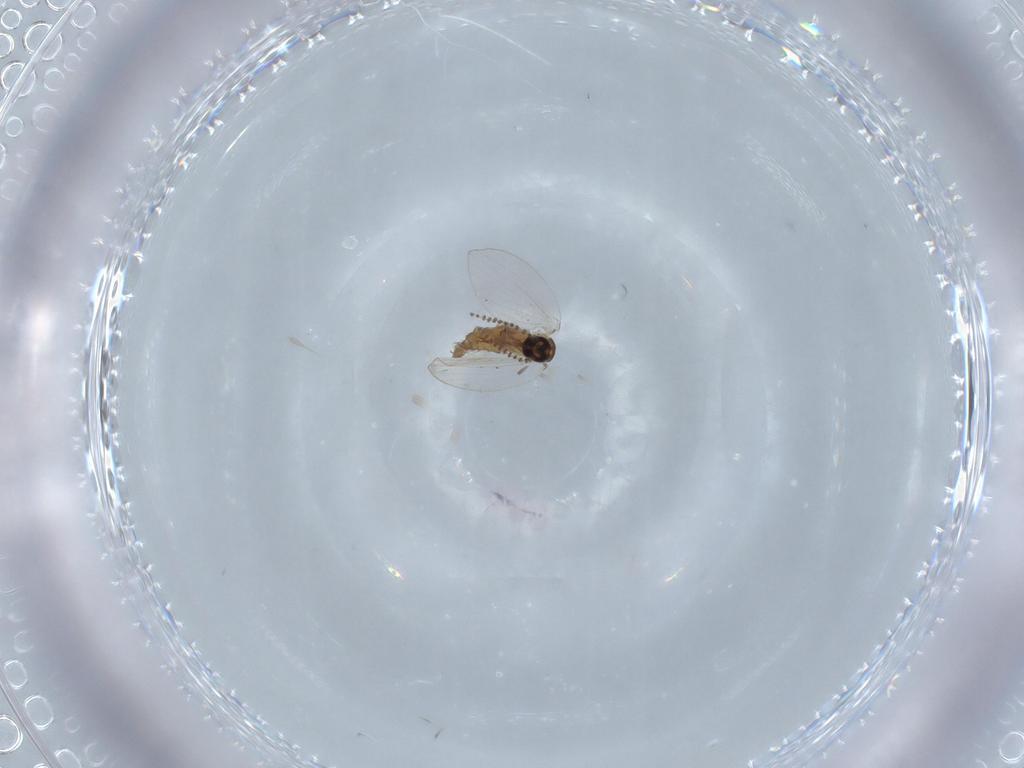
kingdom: Animalia
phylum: Arthropoda
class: Insecta
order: Diptera
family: Psychodidae
